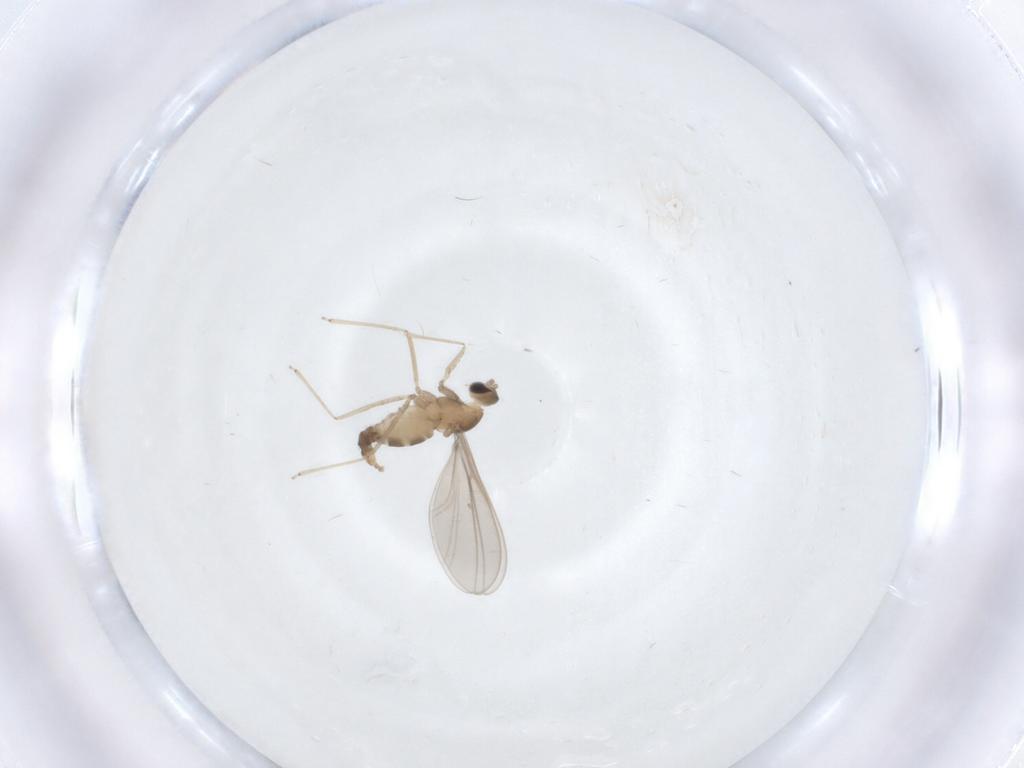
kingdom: Animalia
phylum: Arthropoda
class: Insecta
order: Diptera
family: Cecidomyiidae
